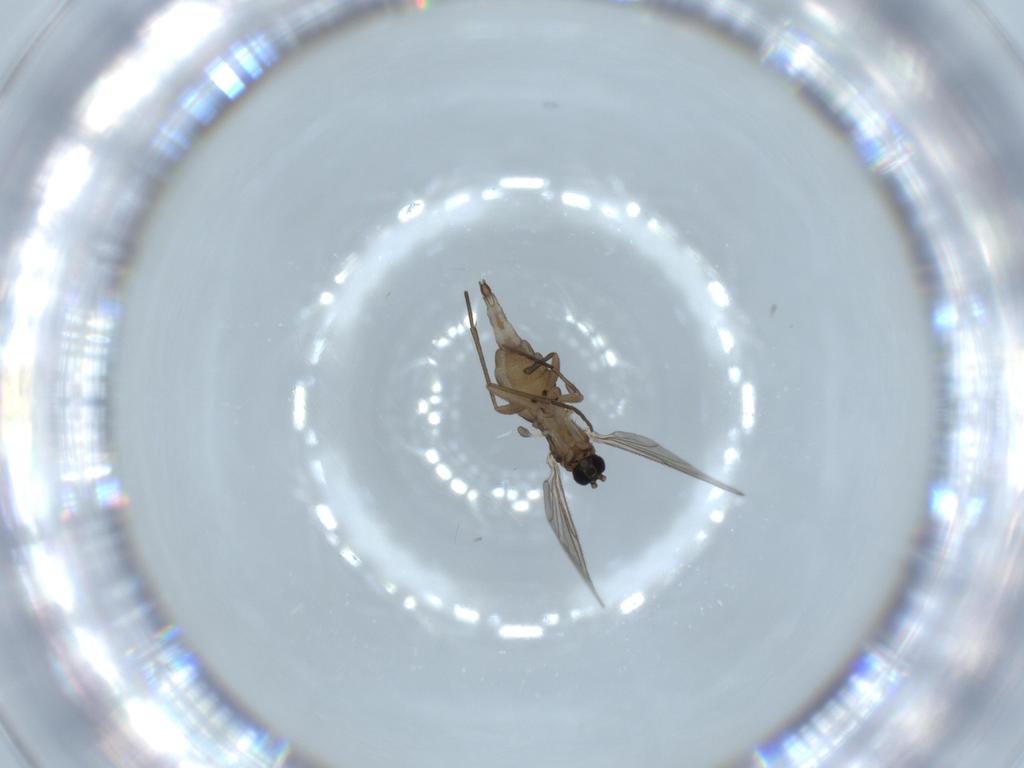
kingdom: Animalia
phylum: Arthropoda
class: Insecta
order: Diptera
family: Sciaridae
